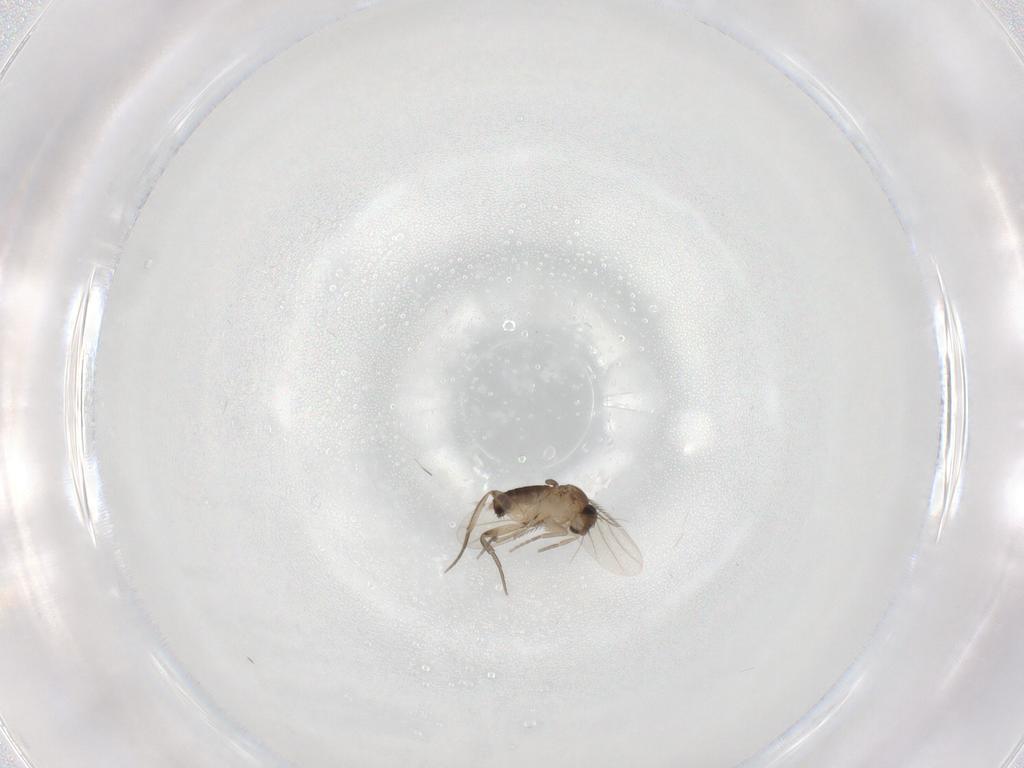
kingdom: Animalia
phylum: Arthropoda
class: Insecta
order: Diptera
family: Phoridae
